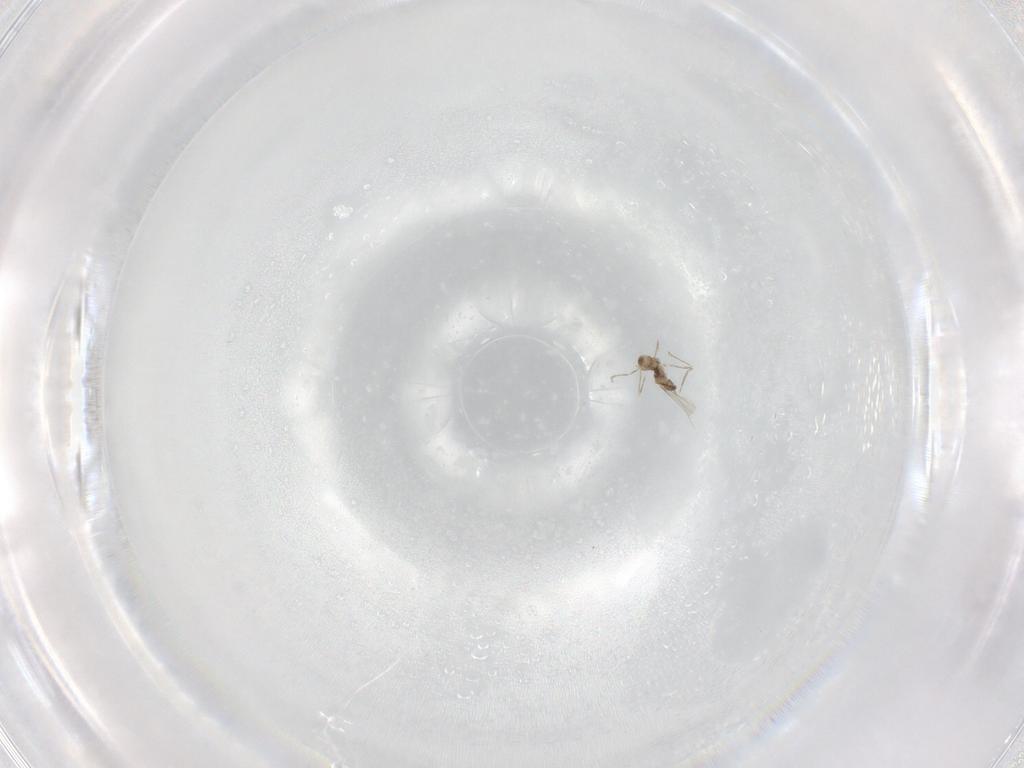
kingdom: Animalia
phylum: Arthropoda
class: Insecta
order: Diptera
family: Cecidomyiidae
